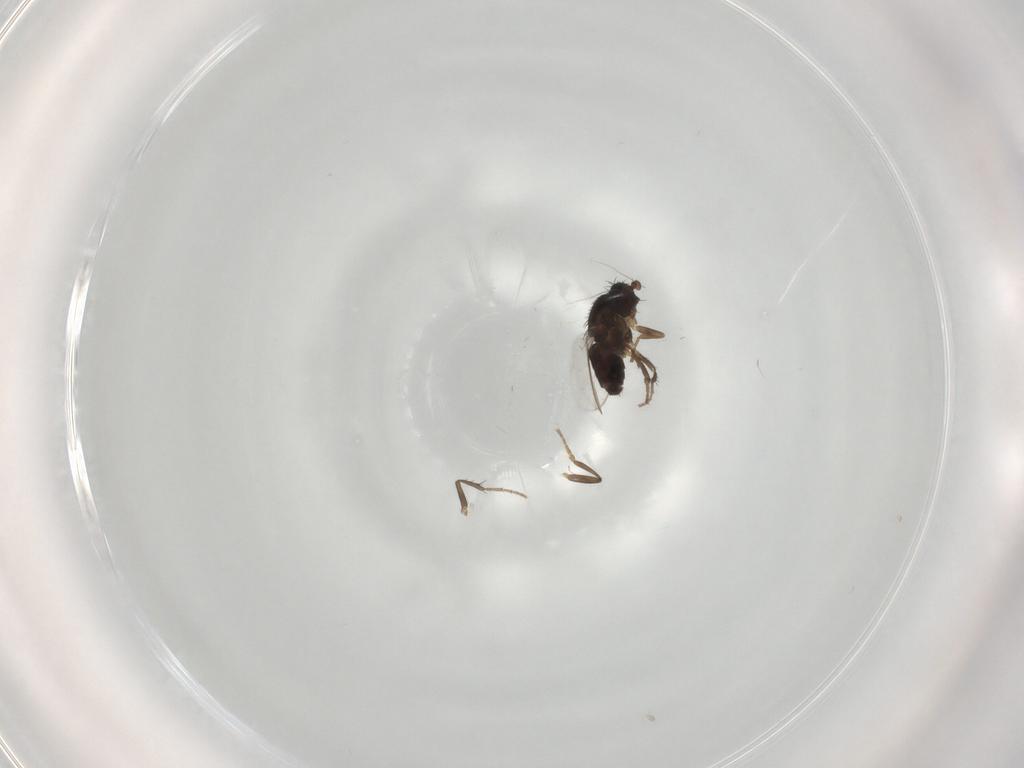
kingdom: Animalia
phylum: Arthropoda
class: Insecta
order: Diptera
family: Sphaeroceridae
